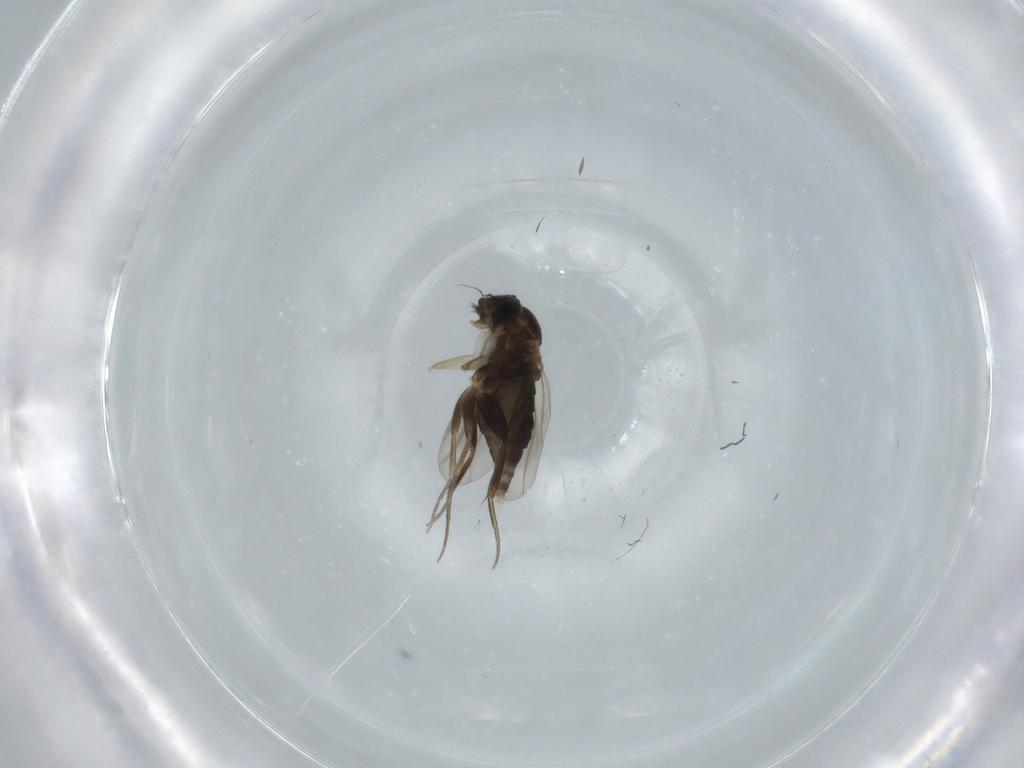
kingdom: Animalia
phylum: Arthropoda
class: Insecta
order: Diptera
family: Phoridae
